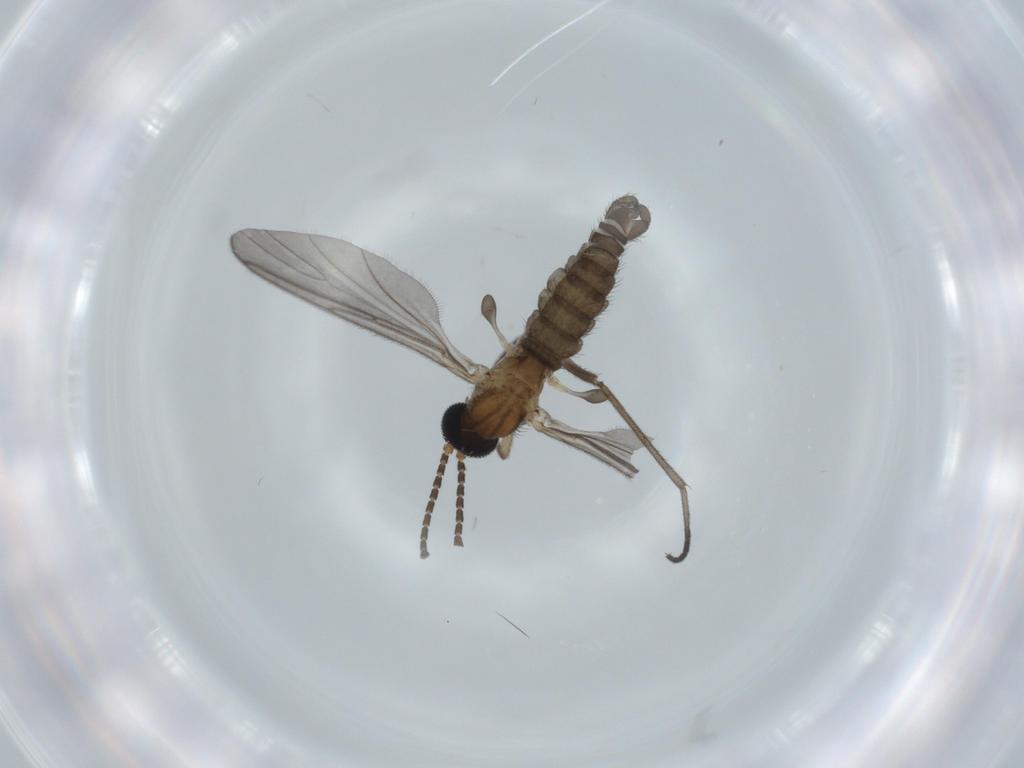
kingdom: Animalia
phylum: Arthropoda
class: Insecta
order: Diptera
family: Sciaridae
